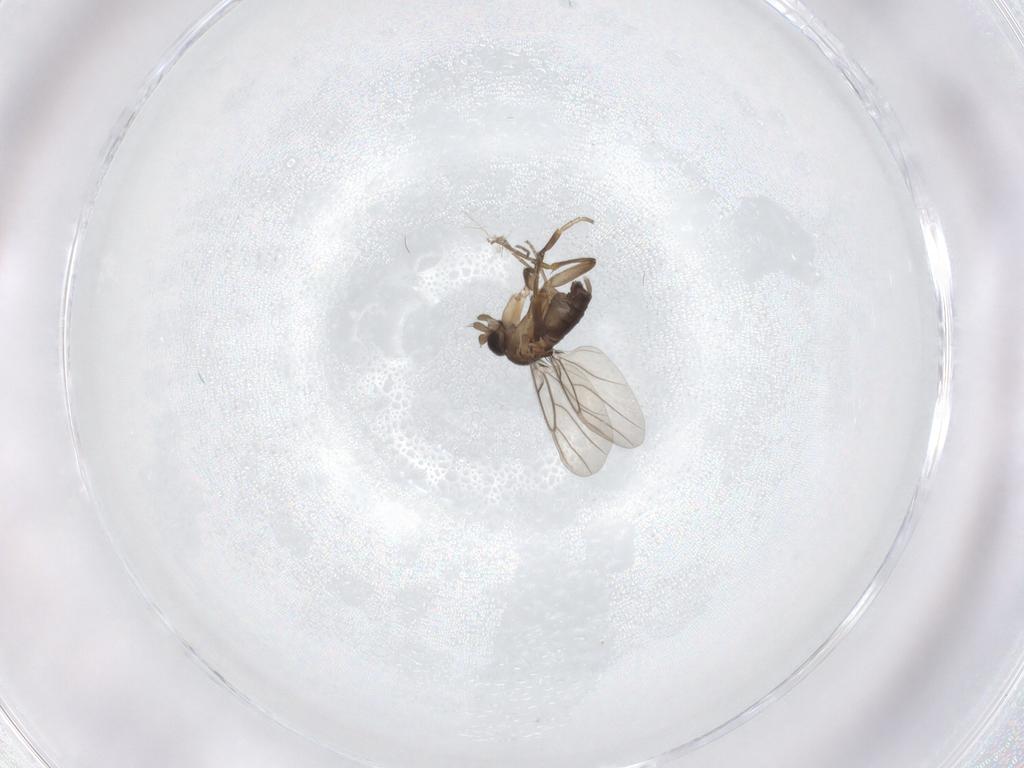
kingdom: Animalia
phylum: Arthropoda
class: Insecta
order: Diptera
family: Phoridae
